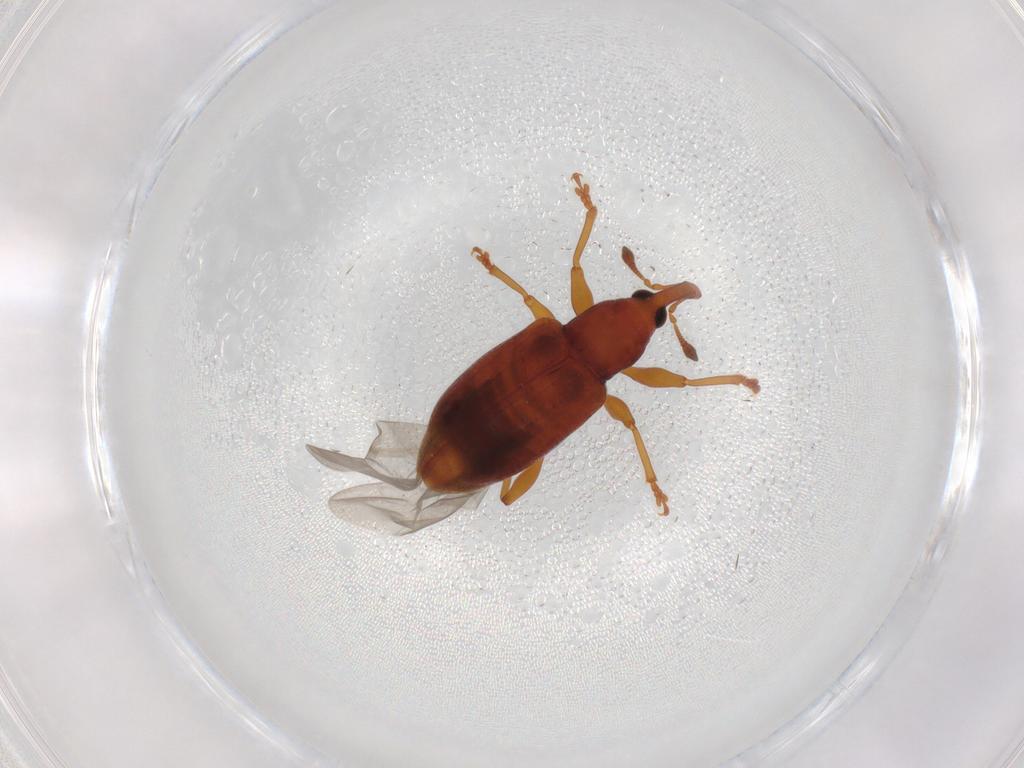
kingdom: Animalia
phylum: Arthropoda
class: Insecta
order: Coleoptera
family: Curculionidae
